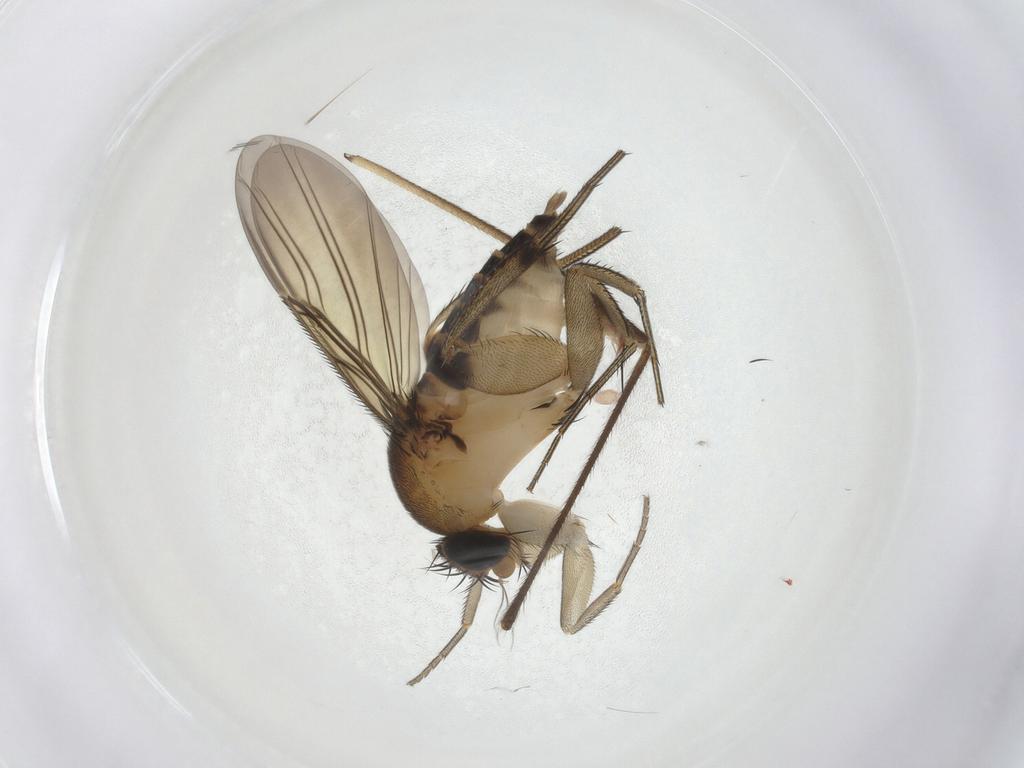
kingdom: Animalia
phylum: Arthropoda
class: Insecta
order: Diptera
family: Limoniidae
